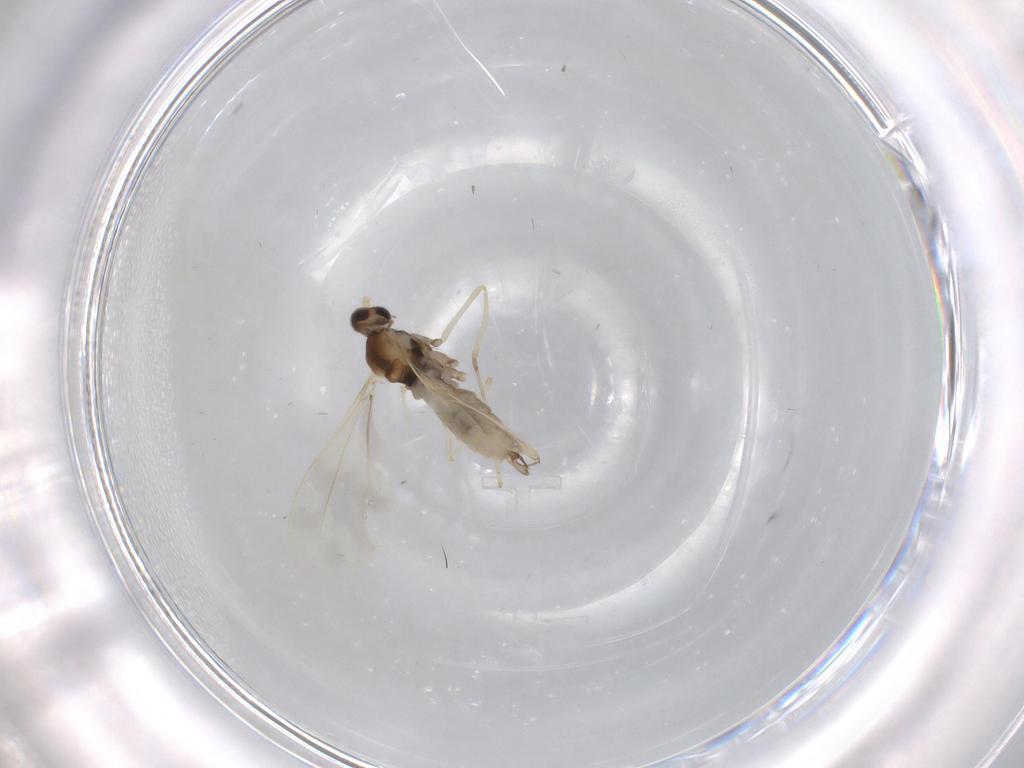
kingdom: Animalia
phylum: Arthropoda
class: Insecta
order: Diptera
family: Cecidomyiidae
